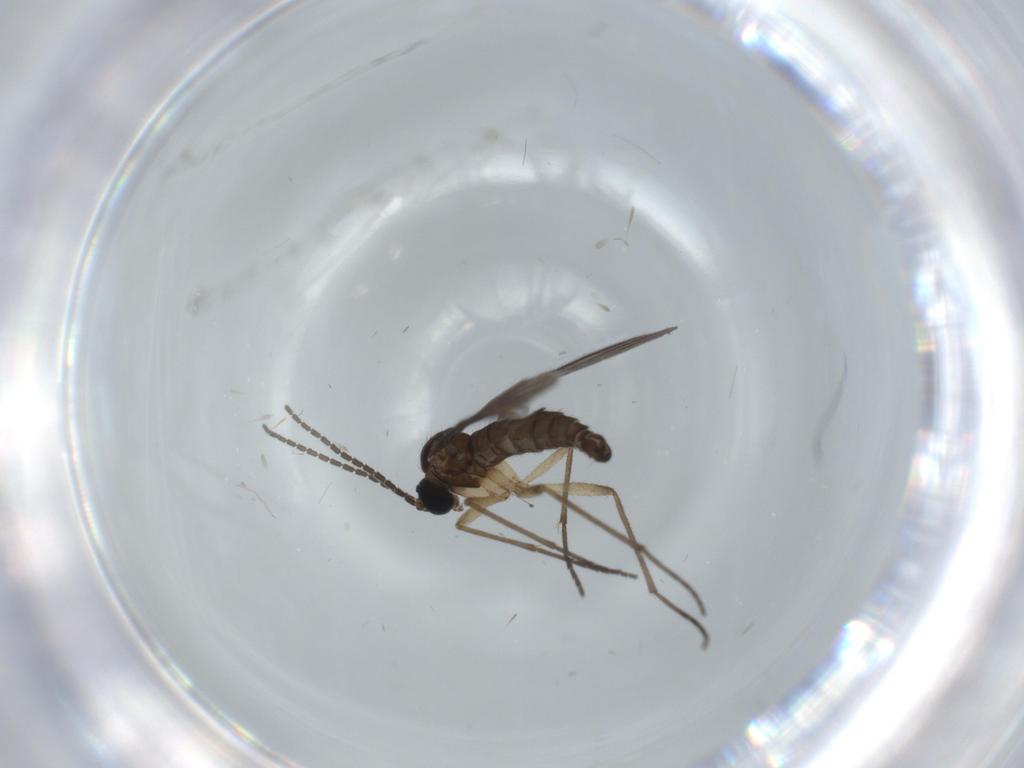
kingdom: Animalia
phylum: Arthropoda
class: Insecta
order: Diptera
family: Sciaridae
